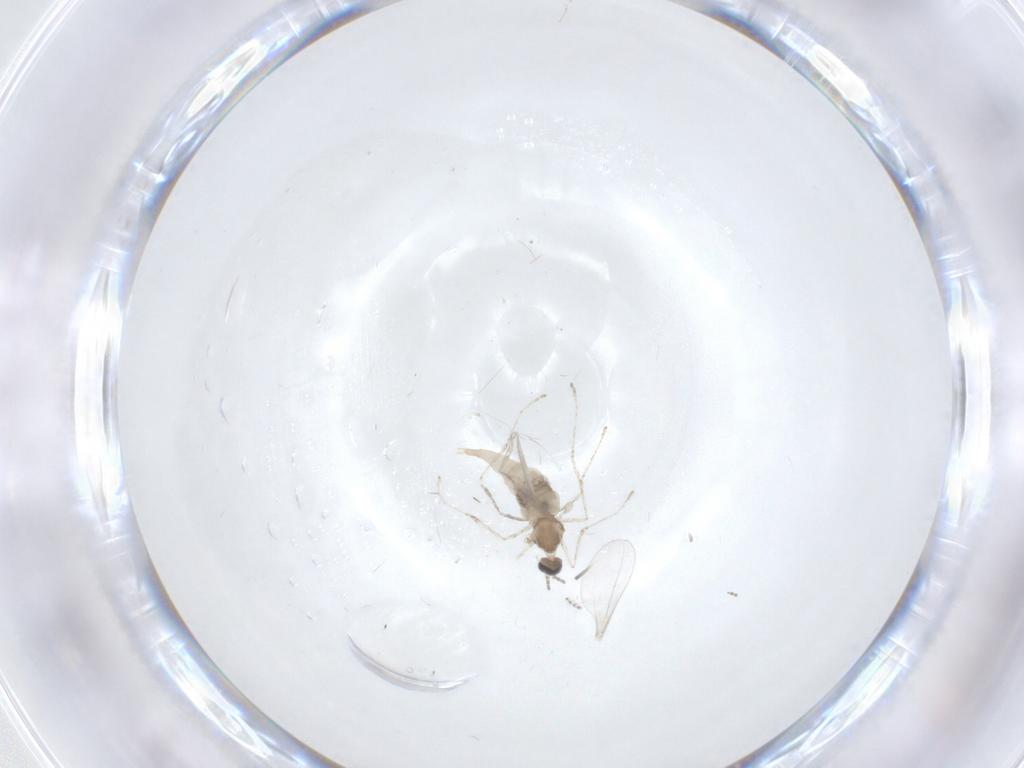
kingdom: Animalia
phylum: Arthropoda
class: Insecta
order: Diptera
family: Cecidomyiidae
